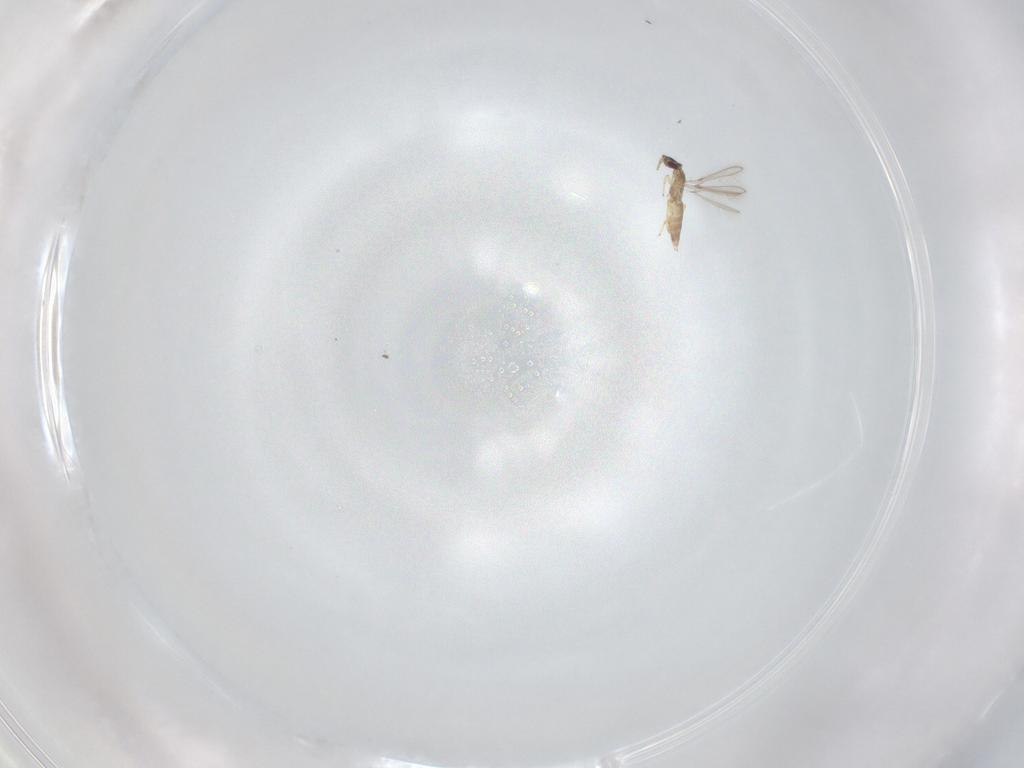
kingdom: Animalia
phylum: Arthropoda
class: Insecta
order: Hymenoptera
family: Mymaridae
